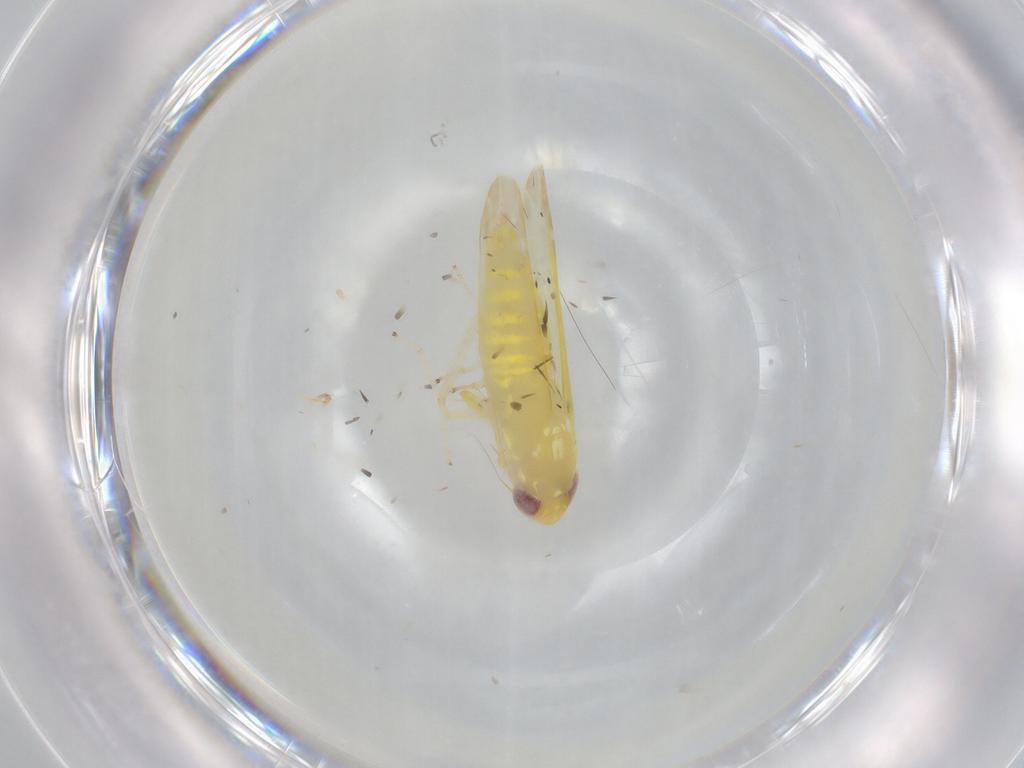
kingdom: Animalia
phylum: Arthropoda
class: Insecta
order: Hemiptera
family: Cicadellidae
